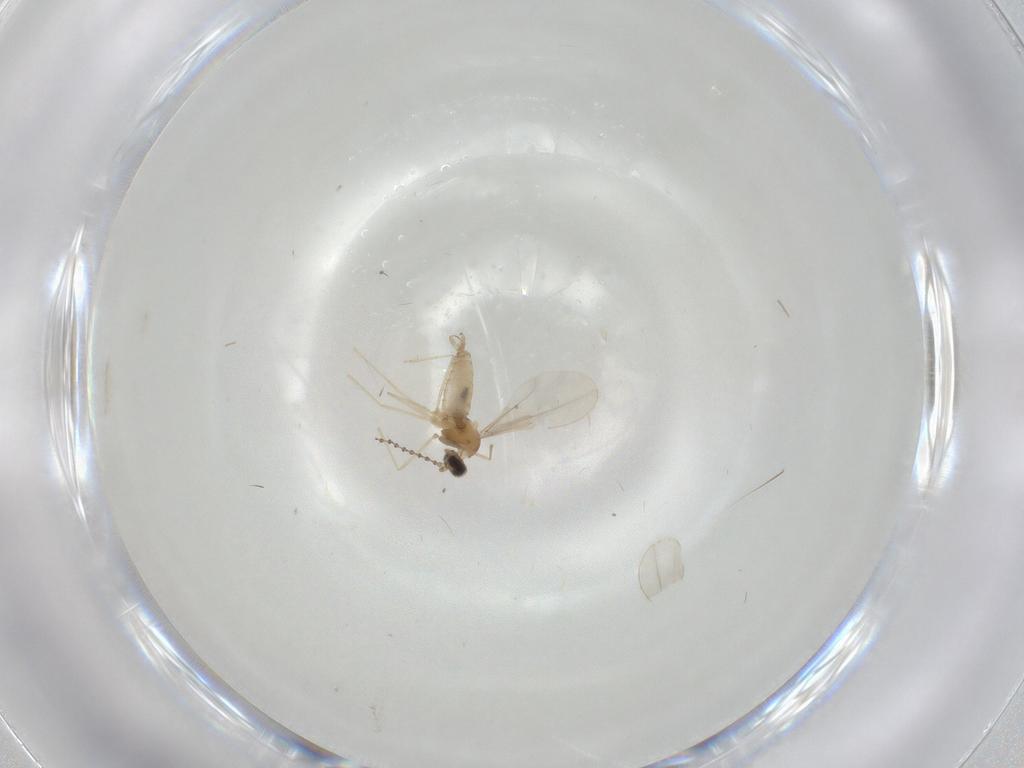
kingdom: Animalia
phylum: Arthropoda
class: Insecta
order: Diptera
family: Cecidomyiidae
